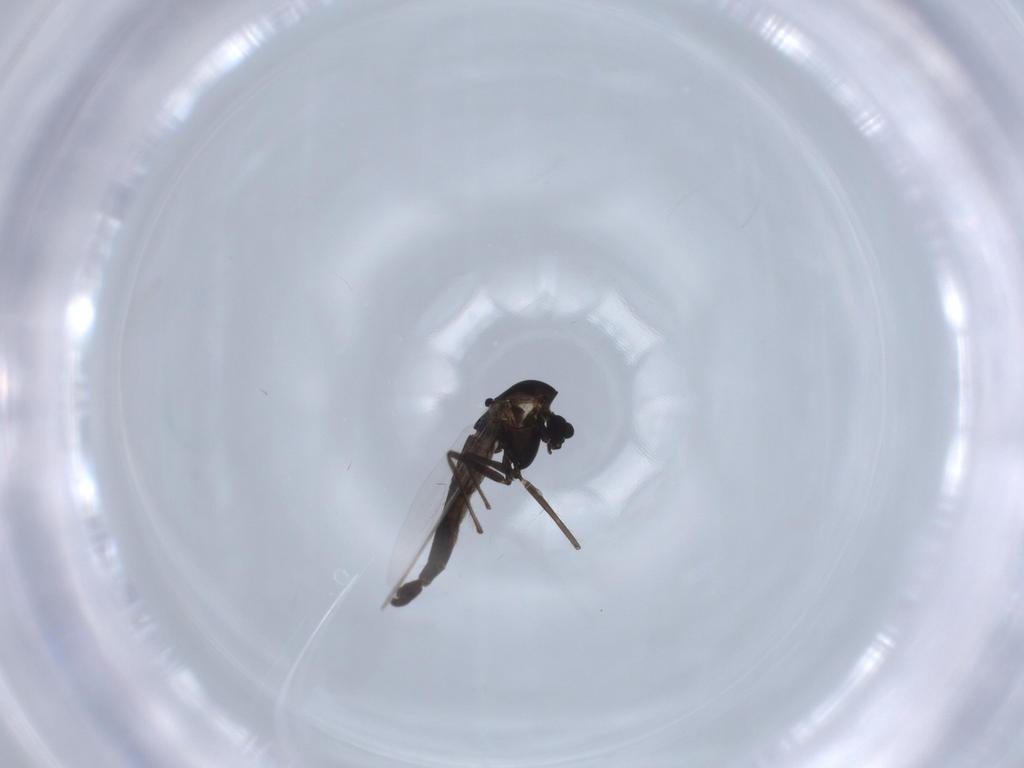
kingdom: Animalia
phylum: Arthropoda
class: Insecta
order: Diptera
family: Chironomidae
